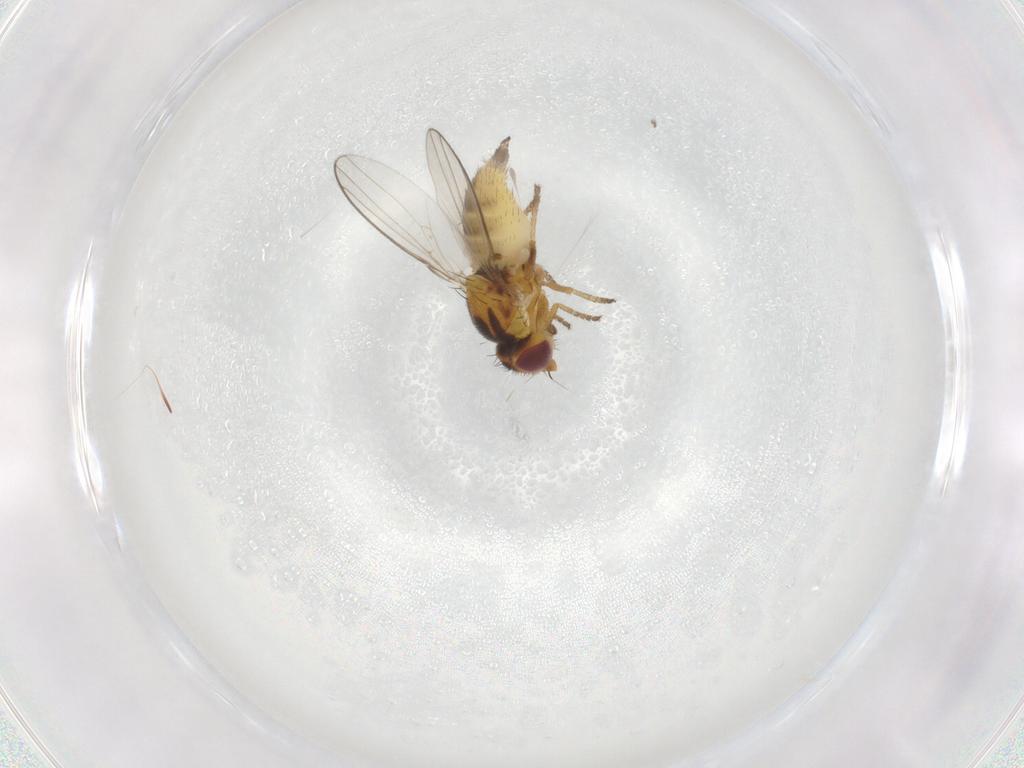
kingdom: Animalia
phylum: Arthropoda
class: Insecta
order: Diptera
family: Chloropidae
